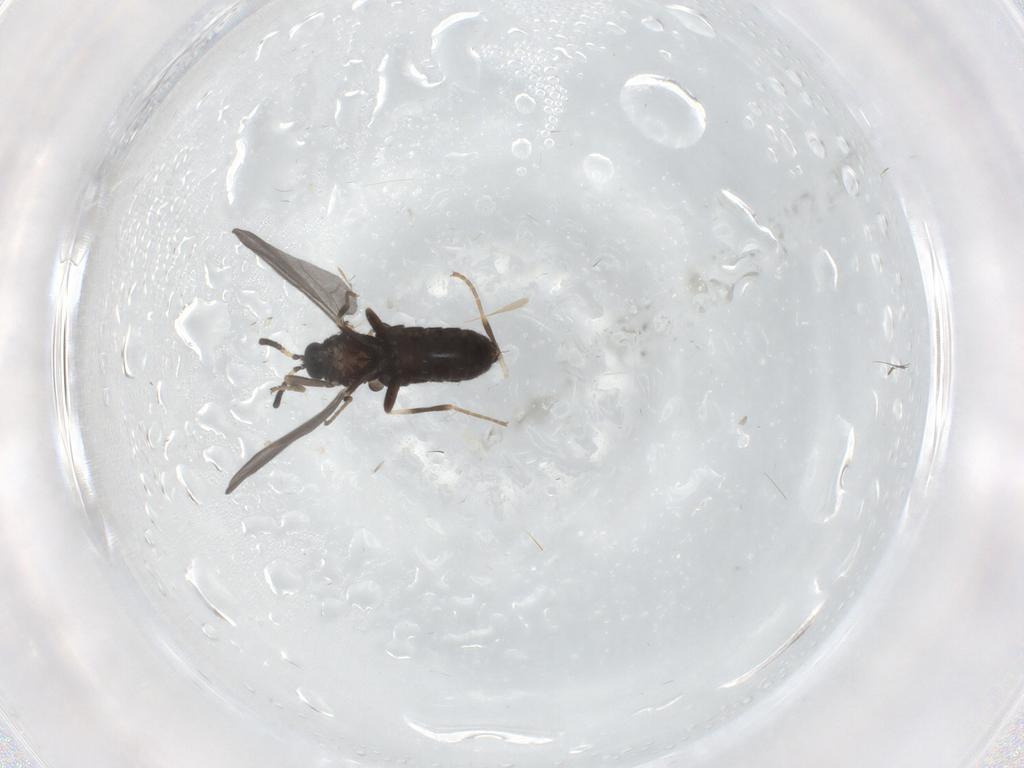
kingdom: Animalia
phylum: Arthropoda
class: Insecta
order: Diptera
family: Scatopsidae
